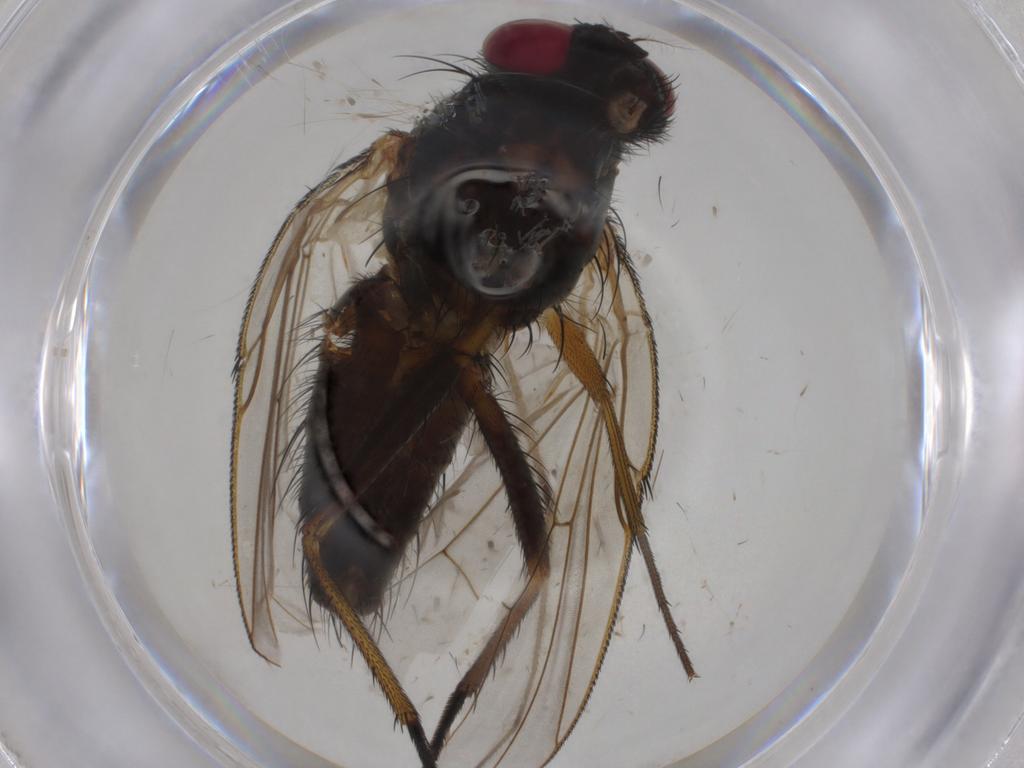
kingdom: Animalia
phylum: Arthropoda
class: Insecta
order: Diptera
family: Muscidae
